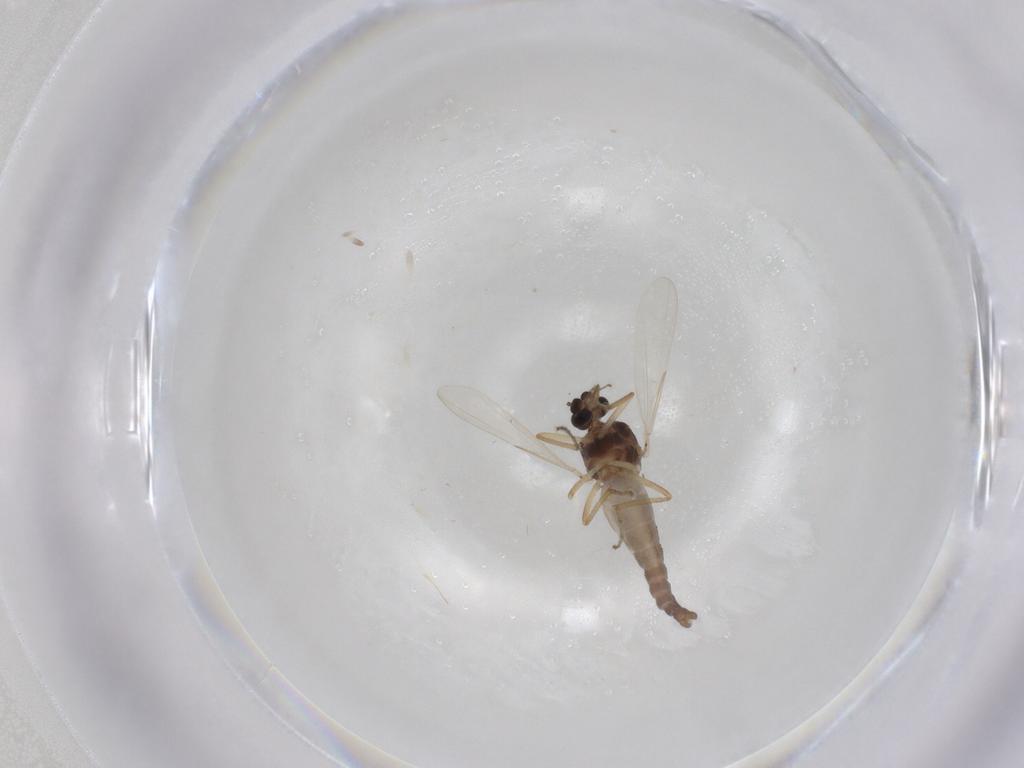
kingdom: Animalia
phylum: Arthropoda
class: Insecta
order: Diptera
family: Ceratopogonidae
